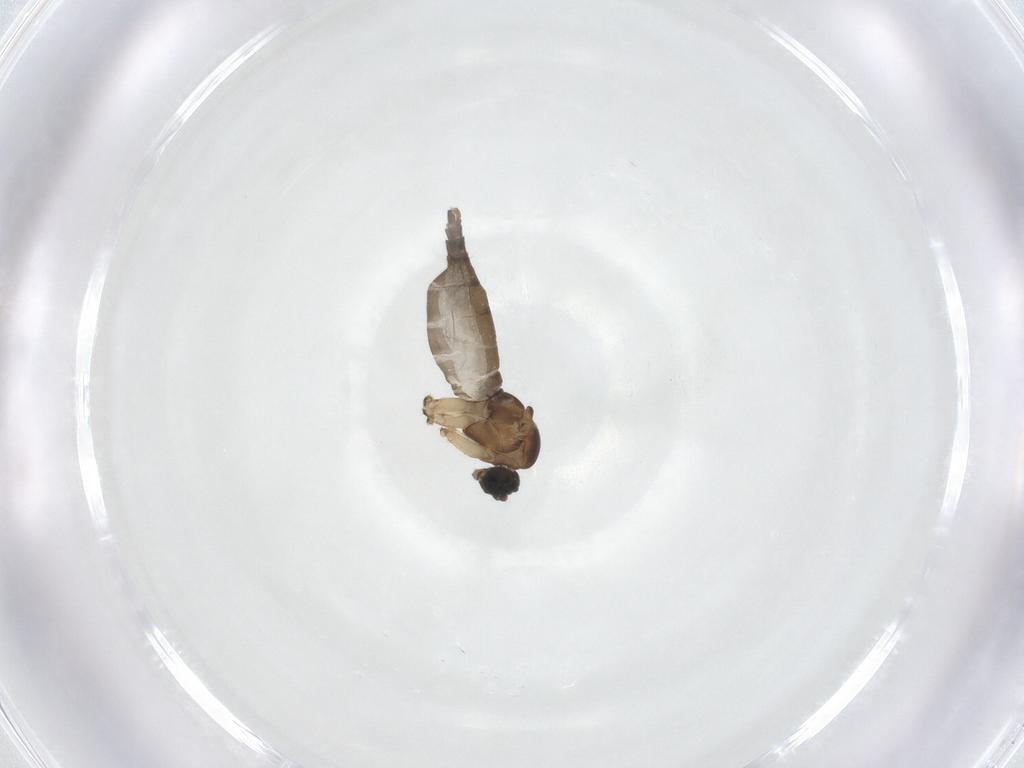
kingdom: Animalia
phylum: Arthropoda
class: Insecta
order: Diptera
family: Sciaridae
